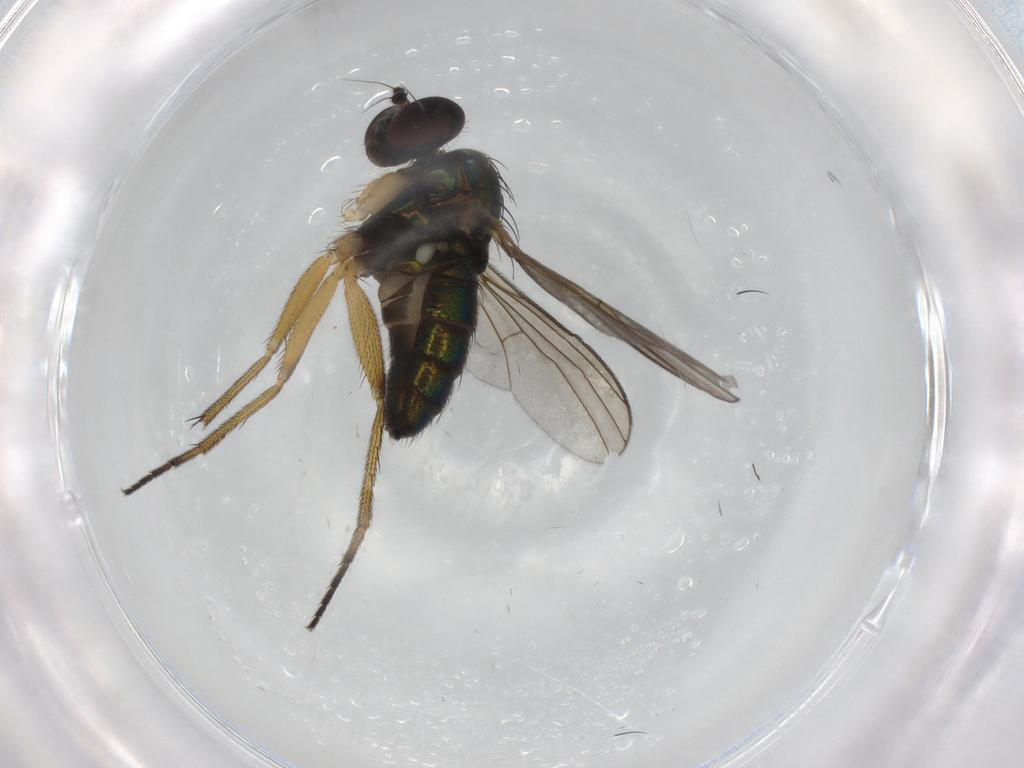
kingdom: Animalia
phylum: Arthropoda
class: Insecta
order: Diptera
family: Dolichopodidae
